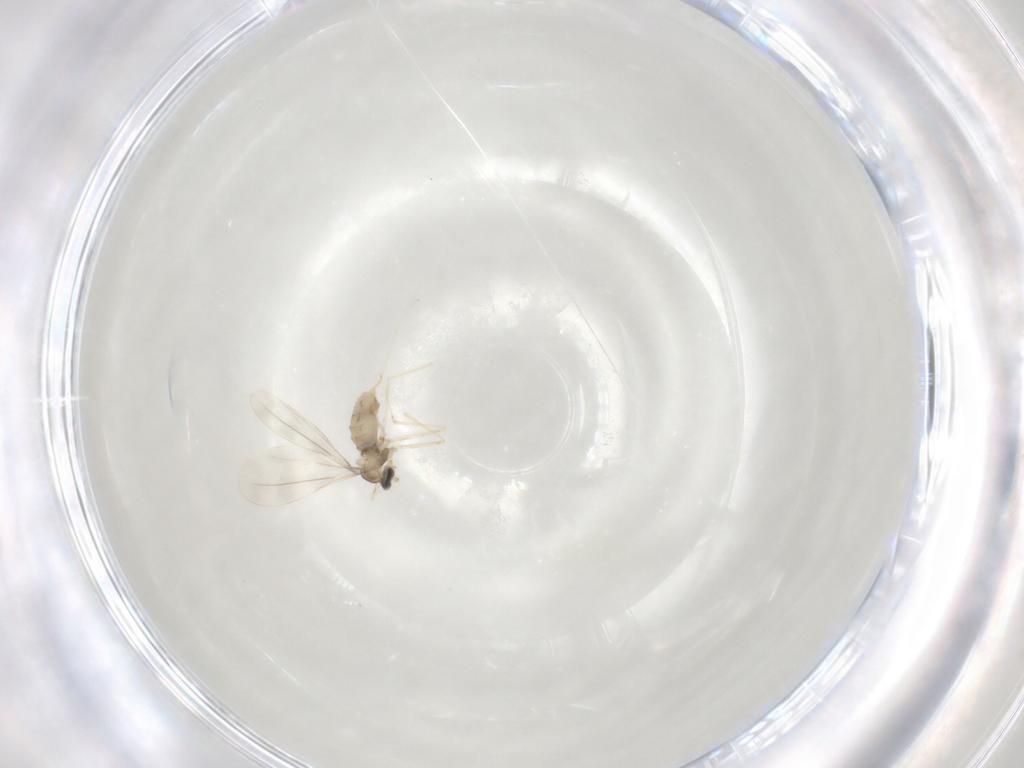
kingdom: Animalia
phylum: Arthropoda
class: Insecta
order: Diptera
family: Cecidomyiidae
